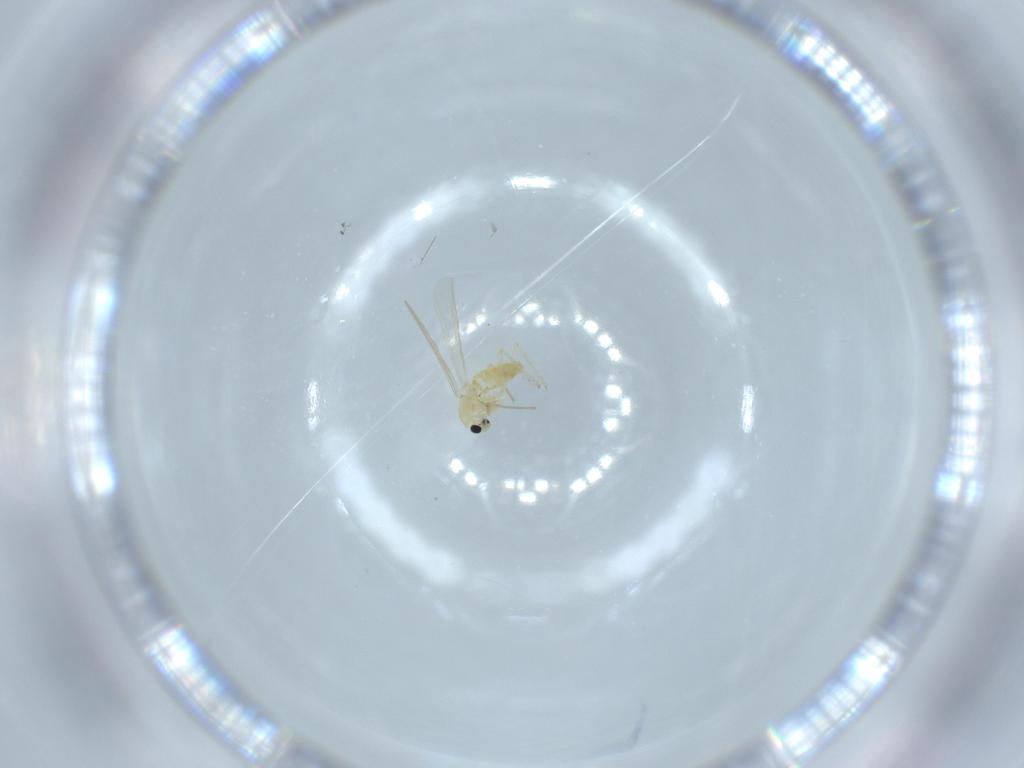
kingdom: Animalia
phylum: Arthropoda
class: Insecta
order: Diptera
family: Chironomidae
